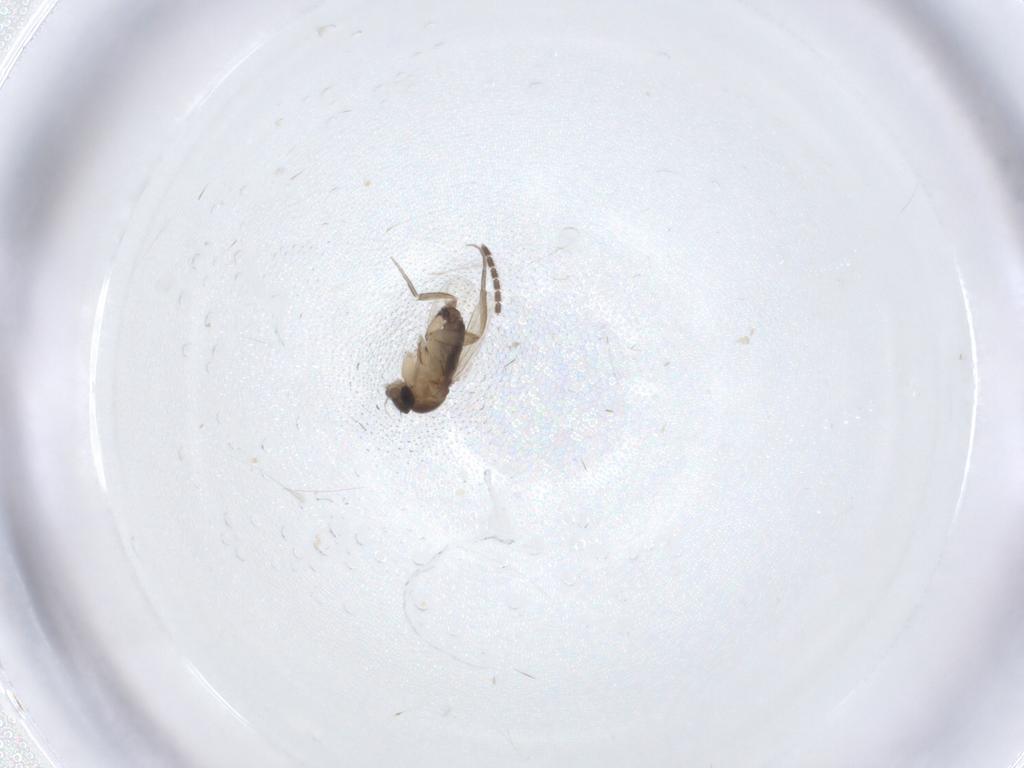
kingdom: Animalia
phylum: Arthropoda
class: Insecta
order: Diptera
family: Phoridae
